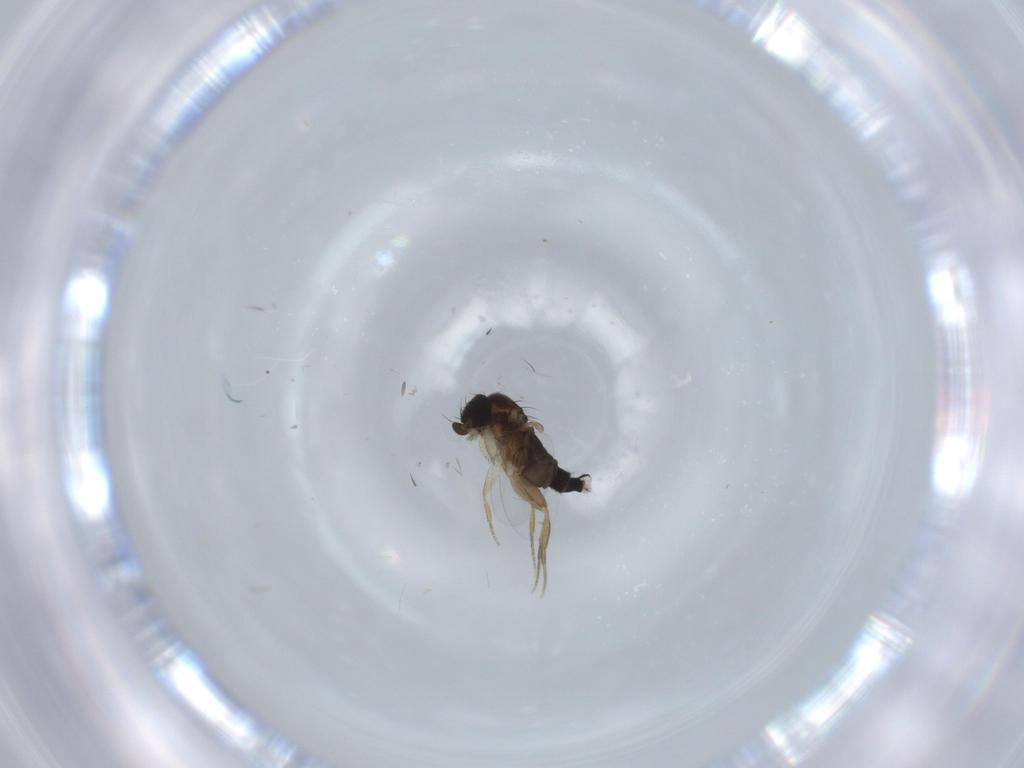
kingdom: Animalia
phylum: Arthropoda
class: Insecta
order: Diptera
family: Phoridae
